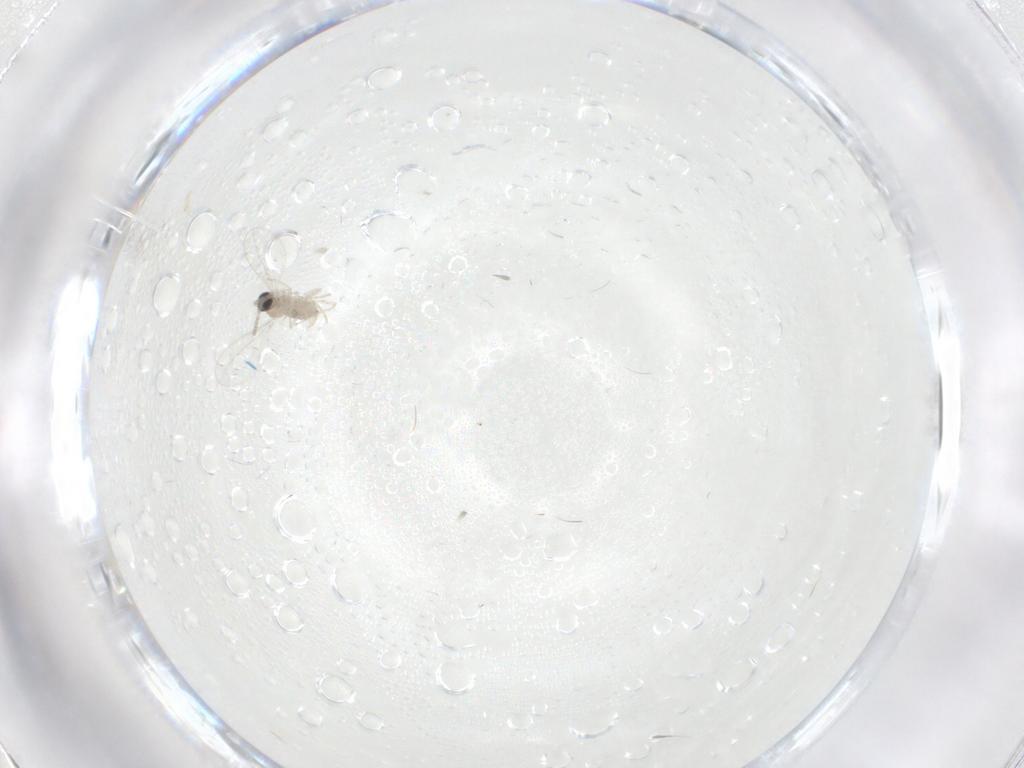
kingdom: Animalia
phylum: Arthropoda
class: Insecta
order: Diptera
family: Cecidomyiidae
